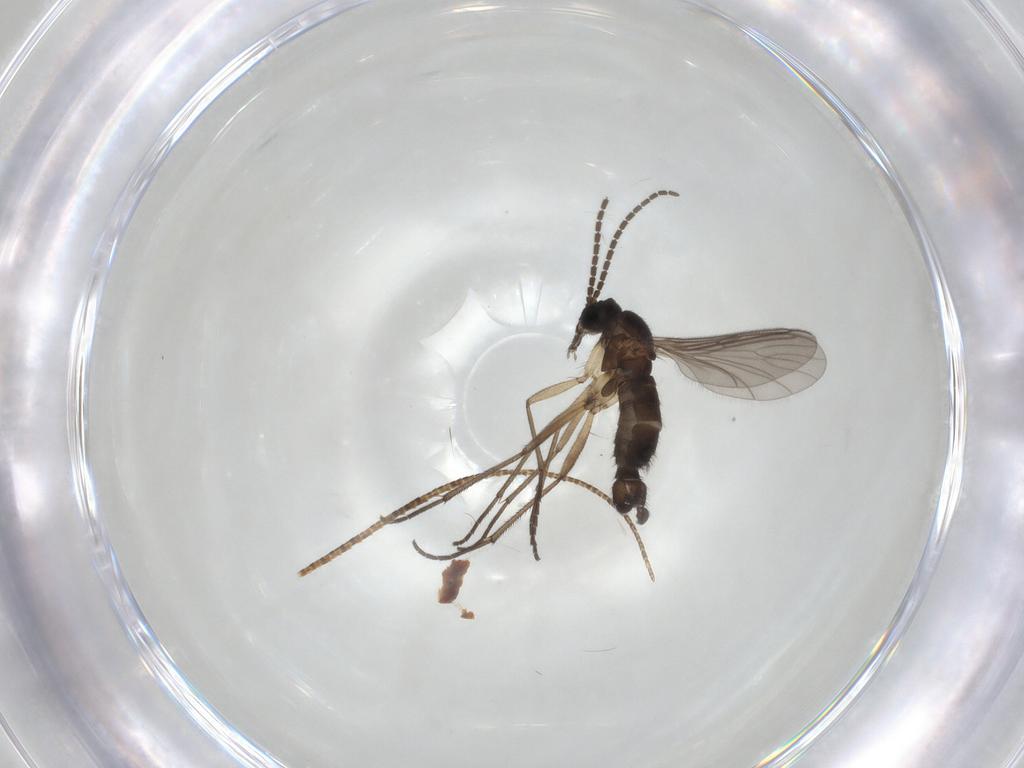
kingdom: Animalia
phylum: Arthropoda
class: Insecta
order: Diptera
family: Sciaridae
